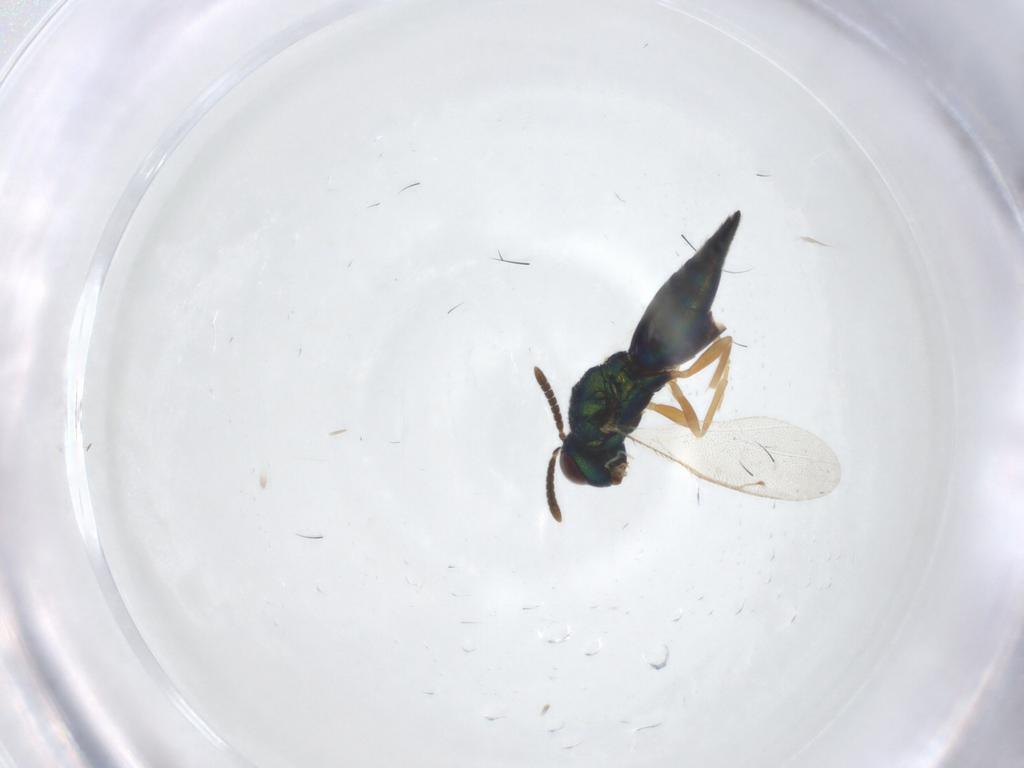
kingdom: Animalia
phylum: Arthropoda
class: Insecta
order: Hymenoptera
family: Pteromalidae
